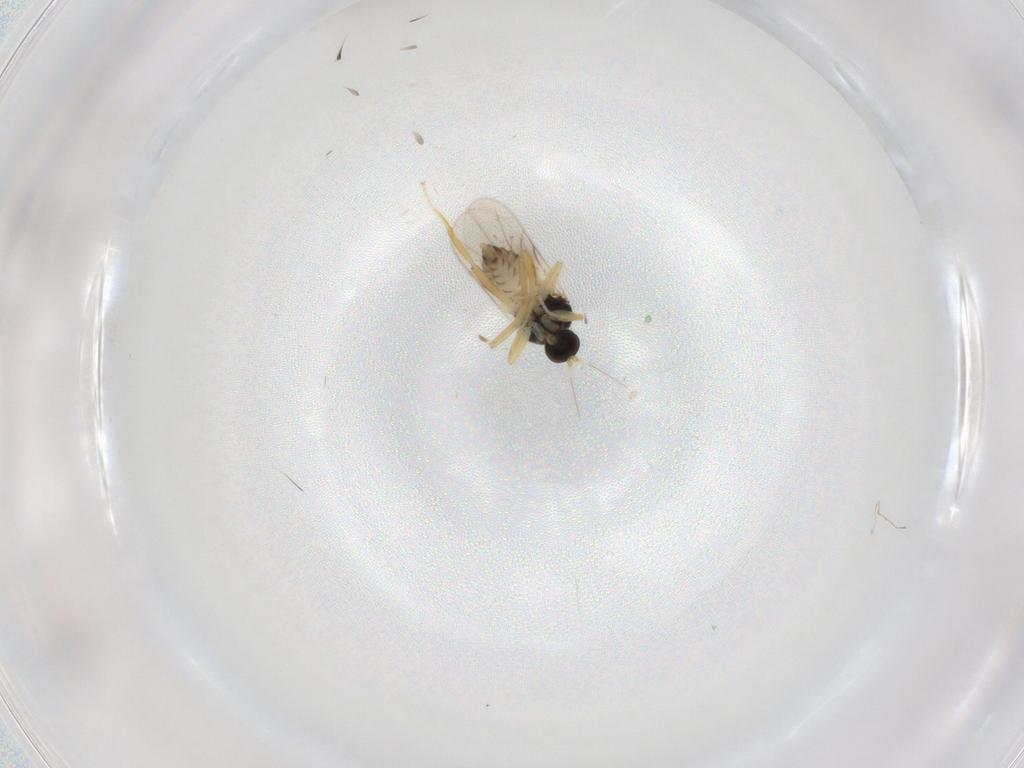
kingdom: Animalia
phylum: Arthropoda
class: Insecta
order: Diptera
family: Hybotidae
